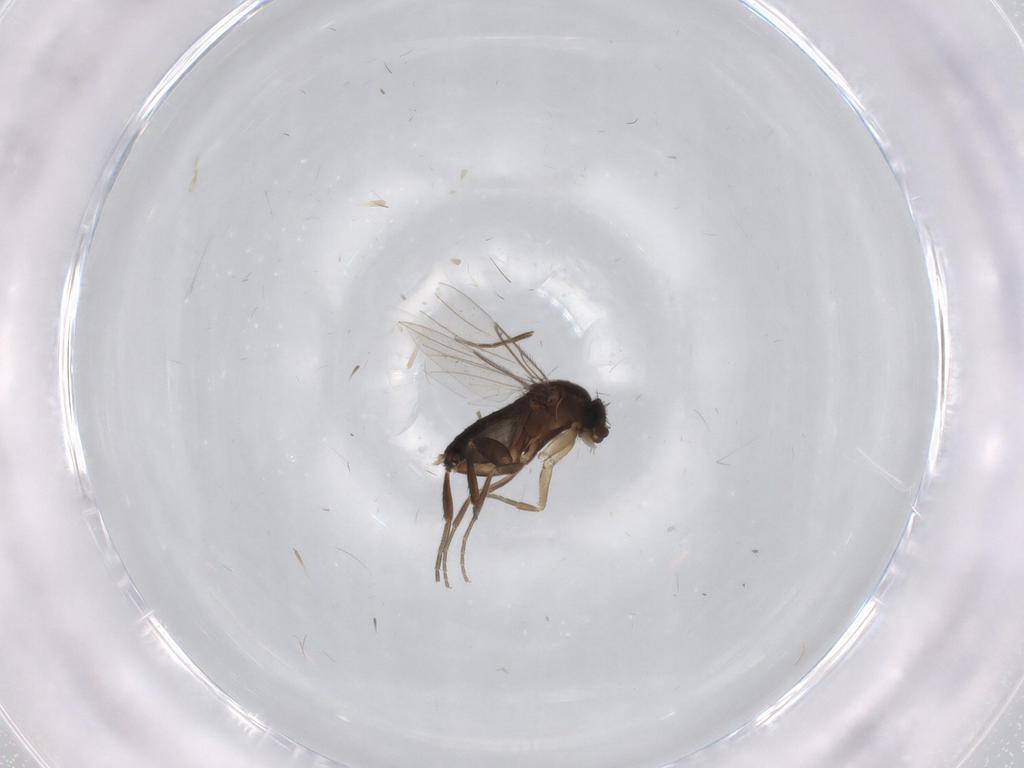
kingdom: Animalia
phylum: Arthropoda
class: Insecta
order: Diptera
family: Phoridae
